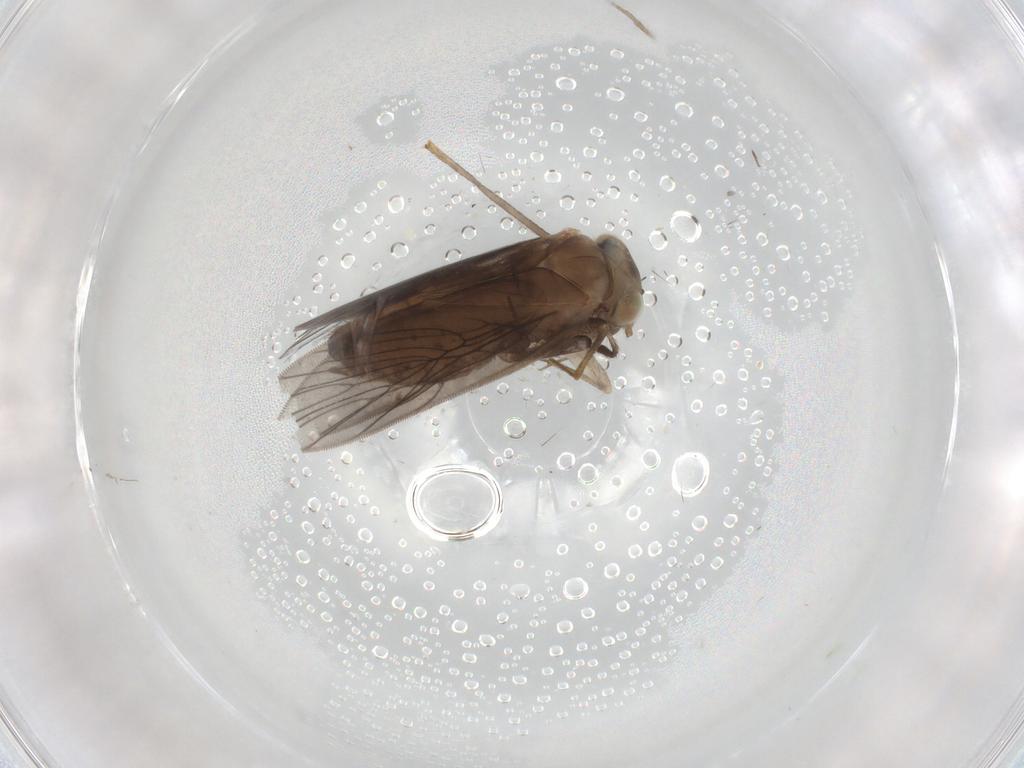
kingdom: Animalia
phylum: Arthropoda
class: Insecta
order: Psocodea
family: Lepidopsocidae
